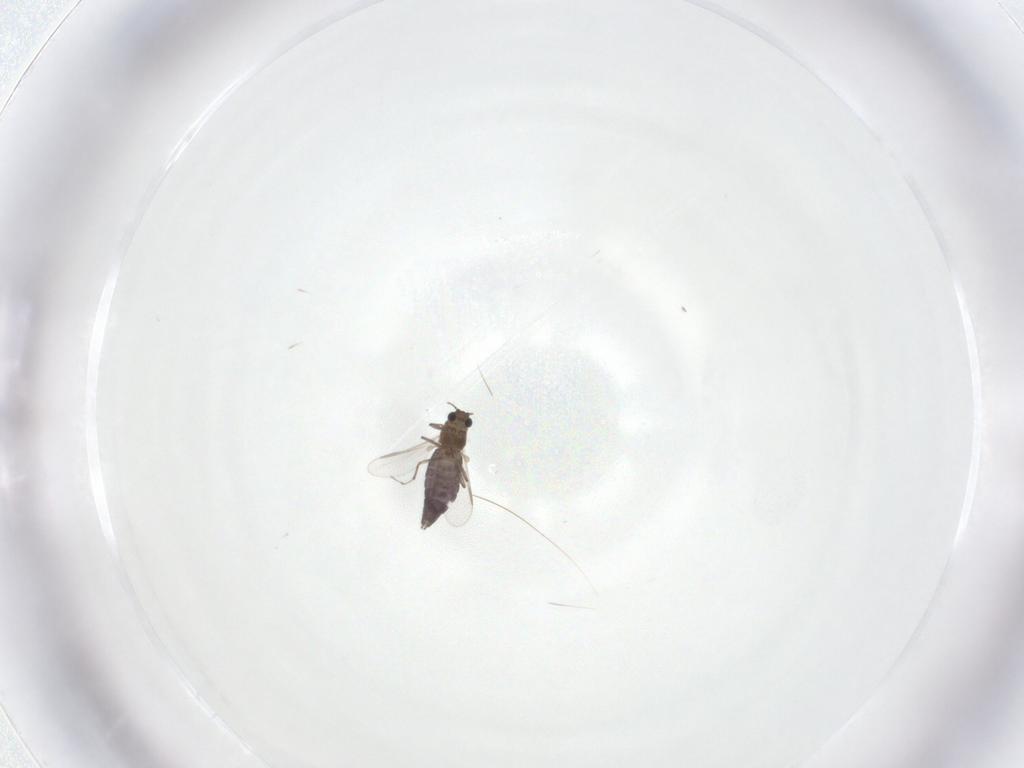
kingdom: Animalia
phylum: Arthropoda
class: Insecta
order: Diptera
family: Chironomidae
